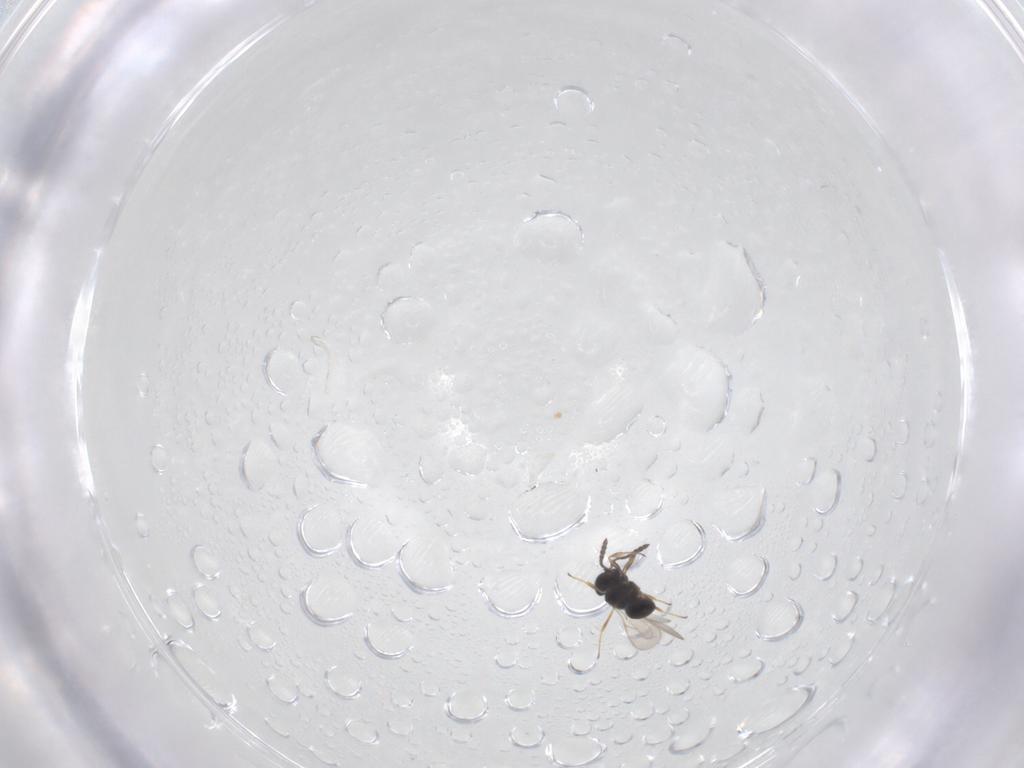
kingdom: Animalia
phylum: Arthropoda
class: Insecta
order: Hymenoptera
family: Scelionidae
